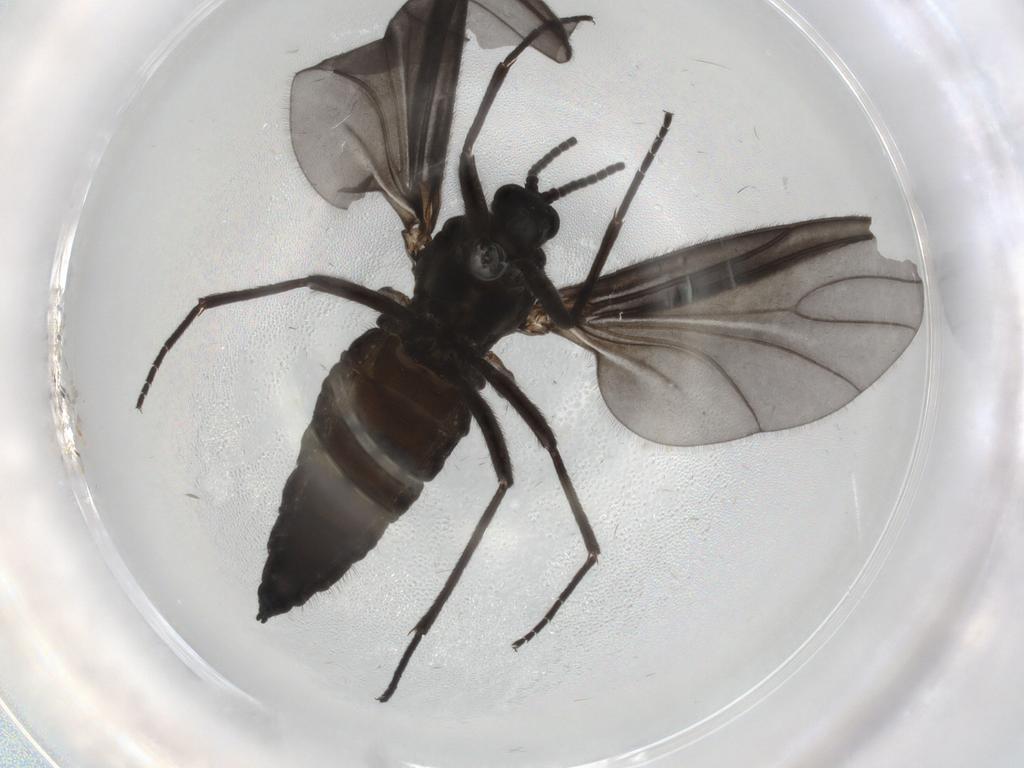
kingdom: Animalia
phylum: Arthropoda
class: Insecta
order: Diptera
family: Sciaridae
